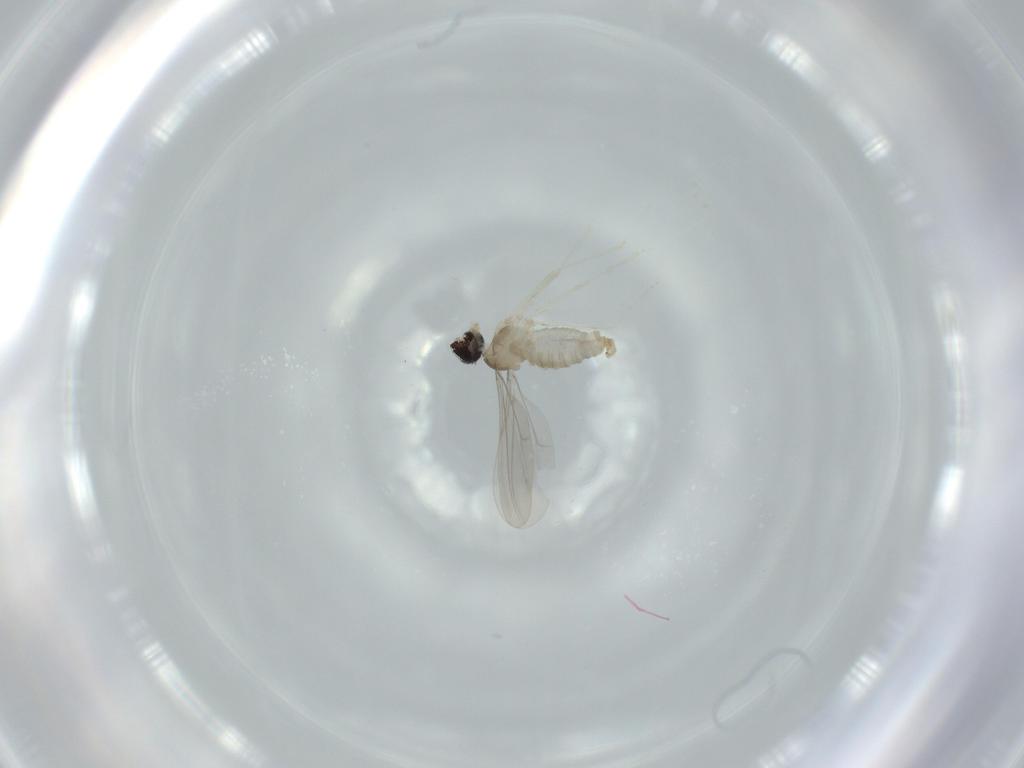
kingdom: Animalia
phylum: Arthropoda
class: Insecta
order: Diptera
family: Cecidomyiidae
